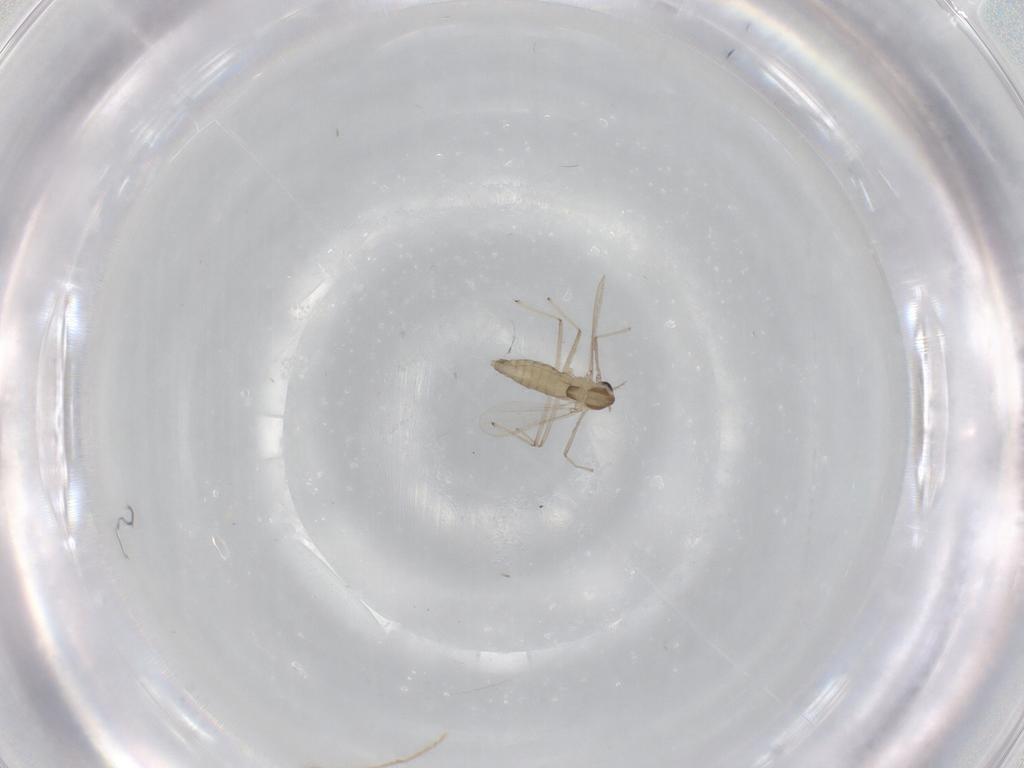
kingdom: Animalia
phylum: Arthropoda
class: Insecta
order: Diptera
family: Chironomidae
